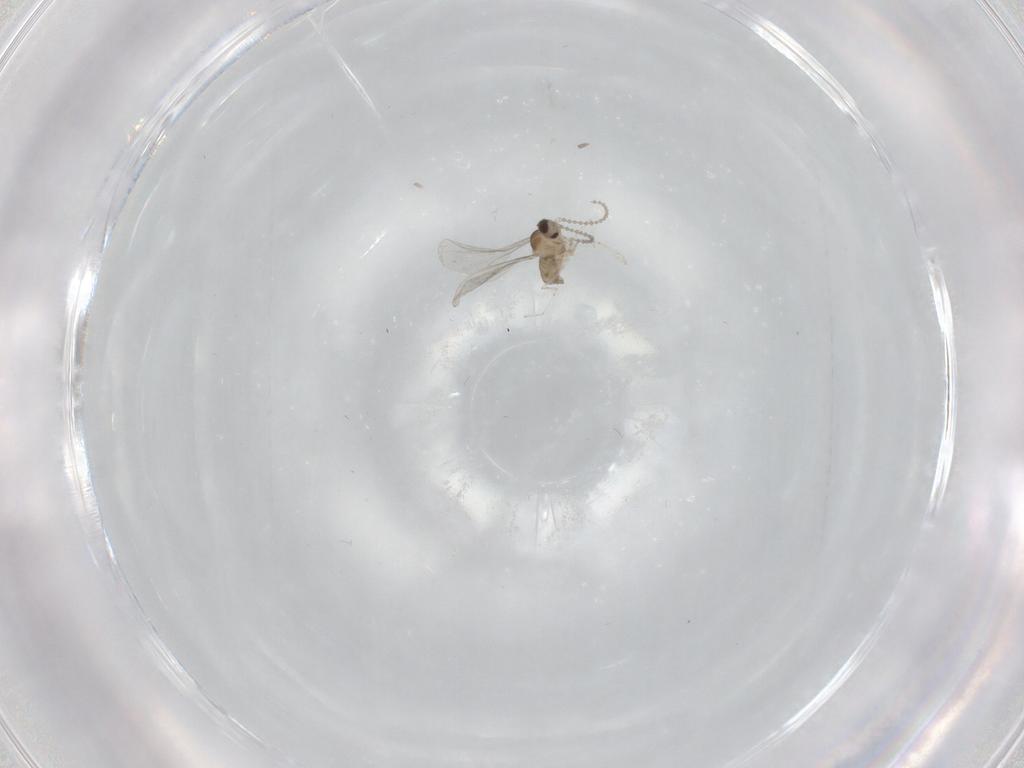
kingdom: Animalia
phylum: Arthropoda
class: Insecta
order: Diptera
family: Cecidomyiidae
